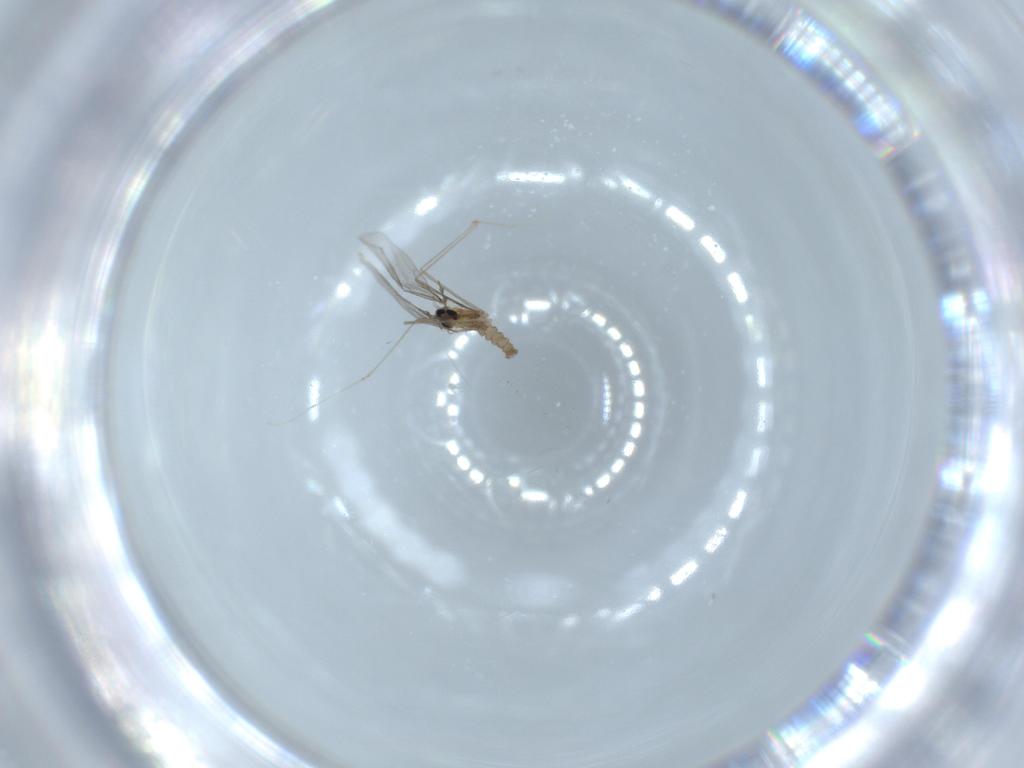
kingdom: Animalia
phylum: Arthropoda
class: Insecta
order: Diptera
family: Cecidomyiidae
